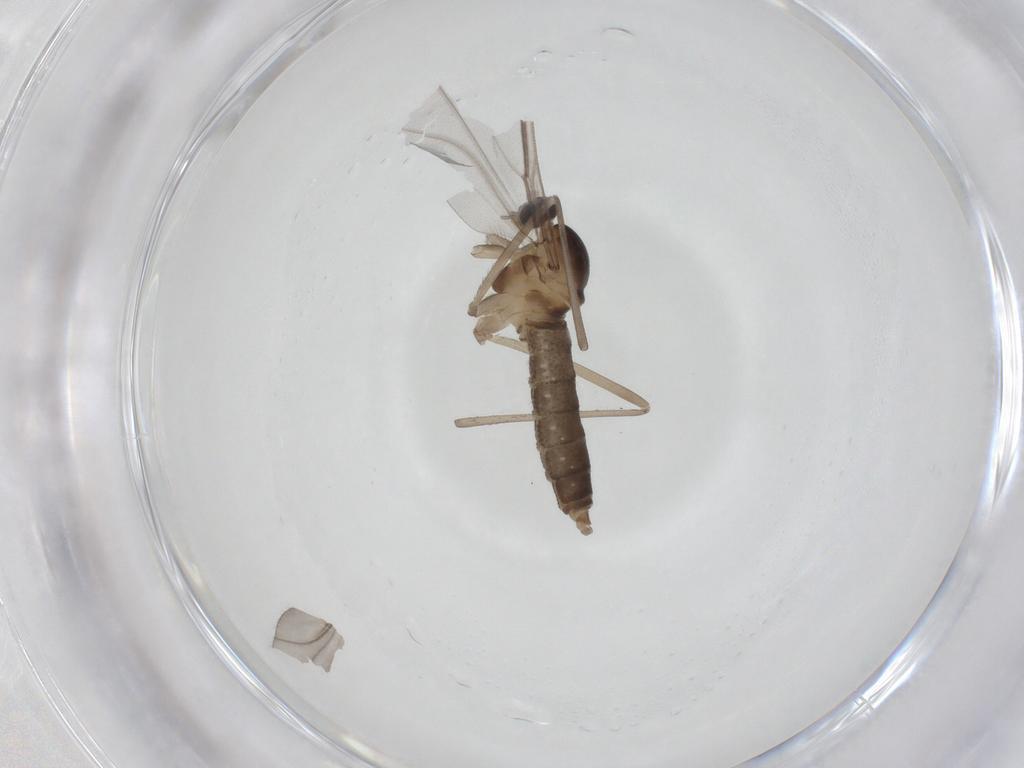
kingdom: Animalia
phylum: Arthropoda
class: Insecta
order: Diptera
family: Cecidomyiidae
